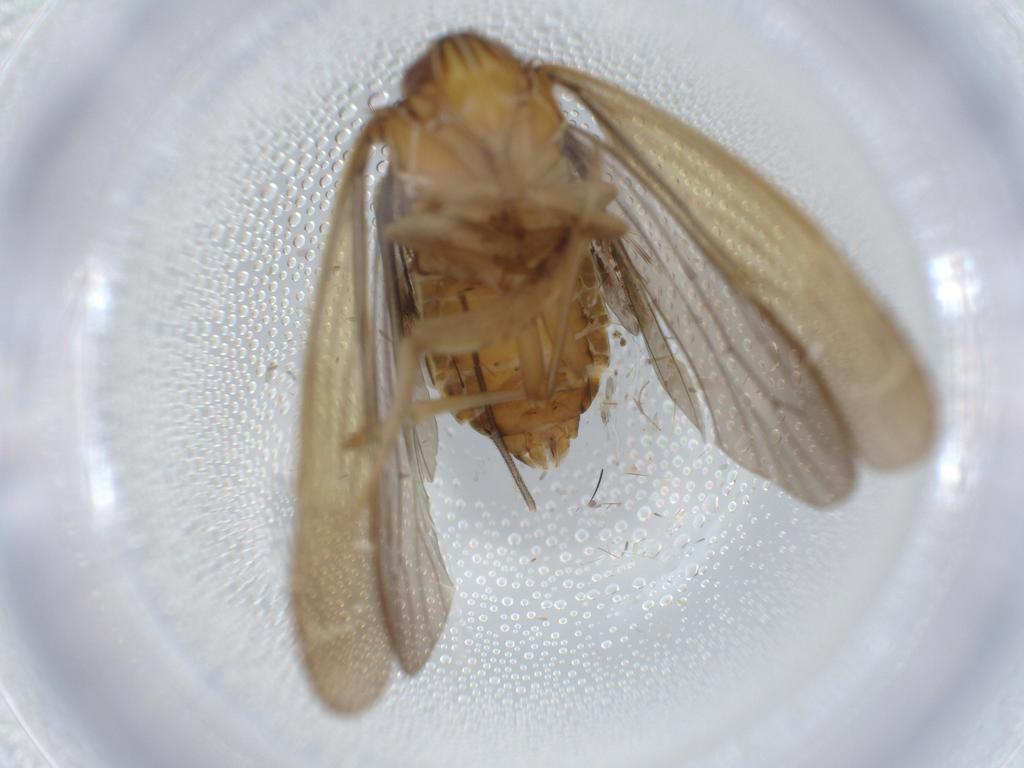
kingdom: Animalia
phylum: Arthropoda
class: Insecta
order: Hemiptera
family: Achilidae
